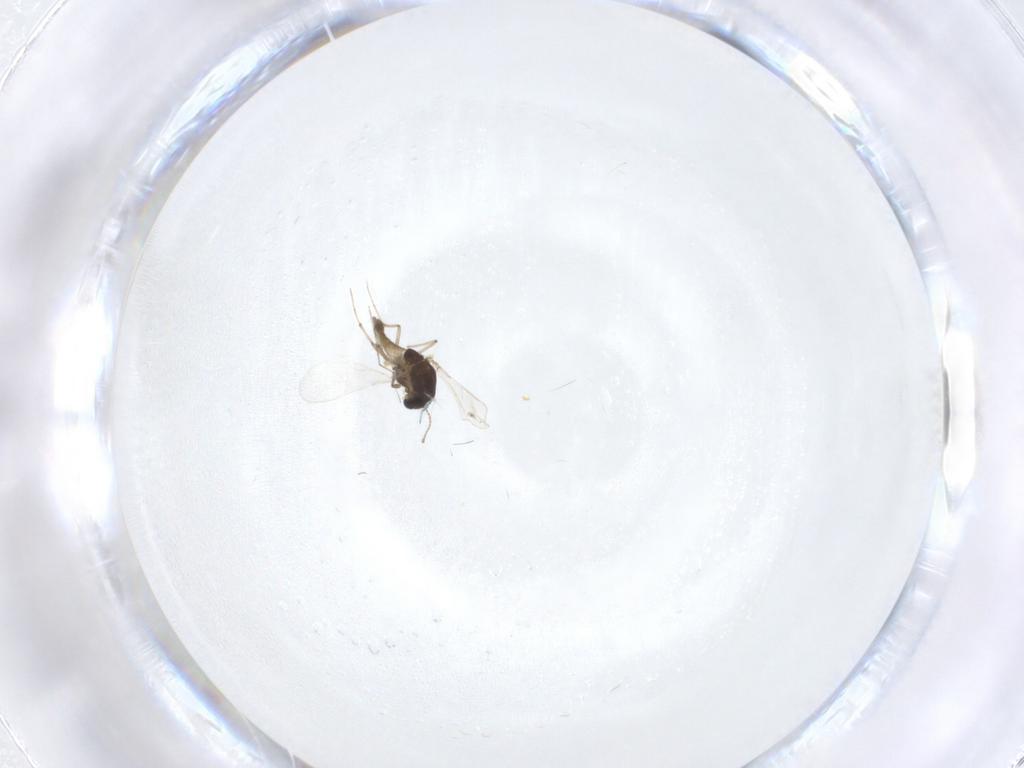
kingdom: Animalia
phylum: Arthropoda
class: Insecta
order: Diptera
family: Chironomidae
